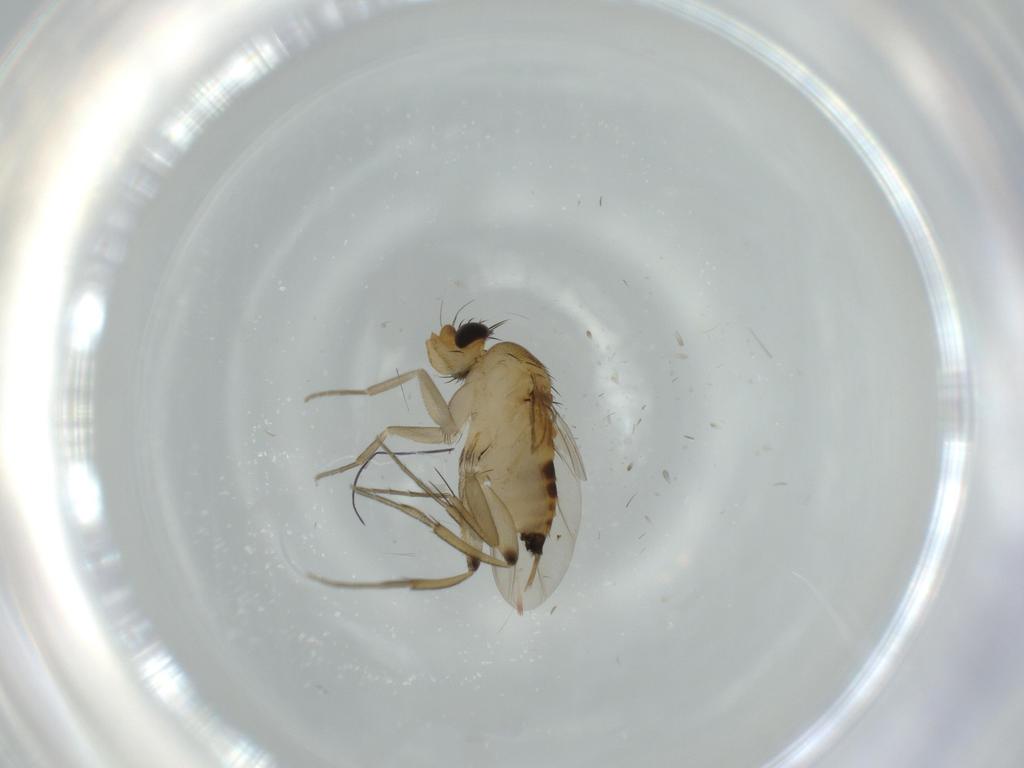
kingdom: Animalia
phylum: Arthropoda
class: Insecta
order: Diptera
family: Phoridae
